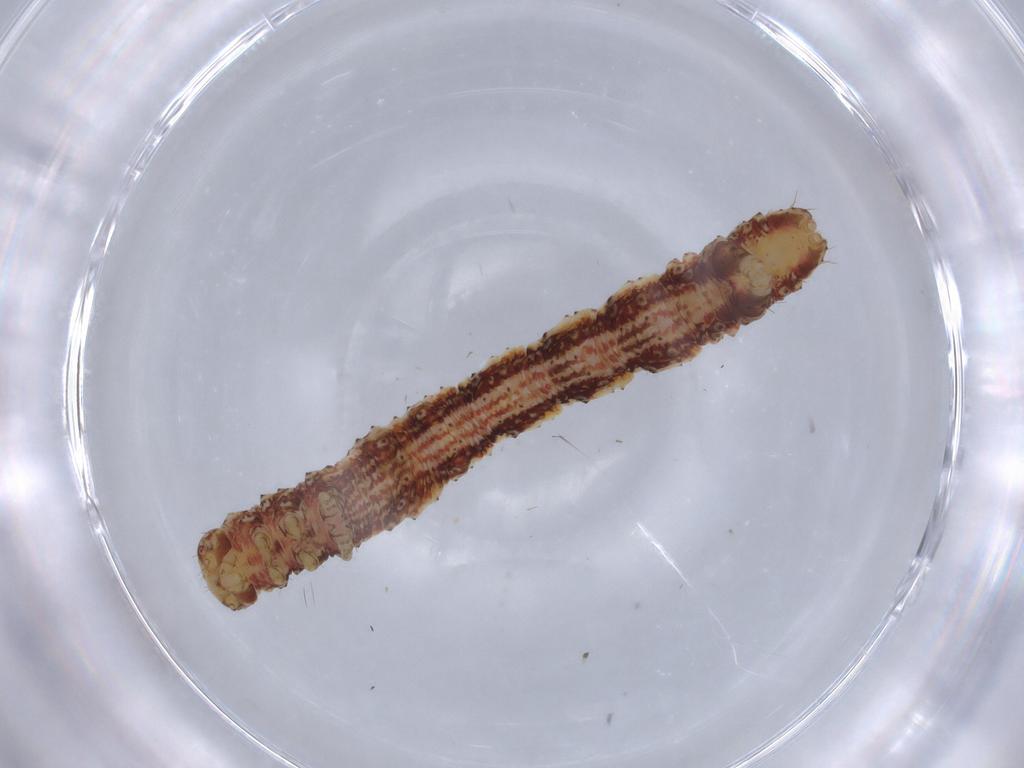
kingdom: Animalia
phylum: Arthropoda
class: Insecta
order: Lepidoptera
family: Geometridae
